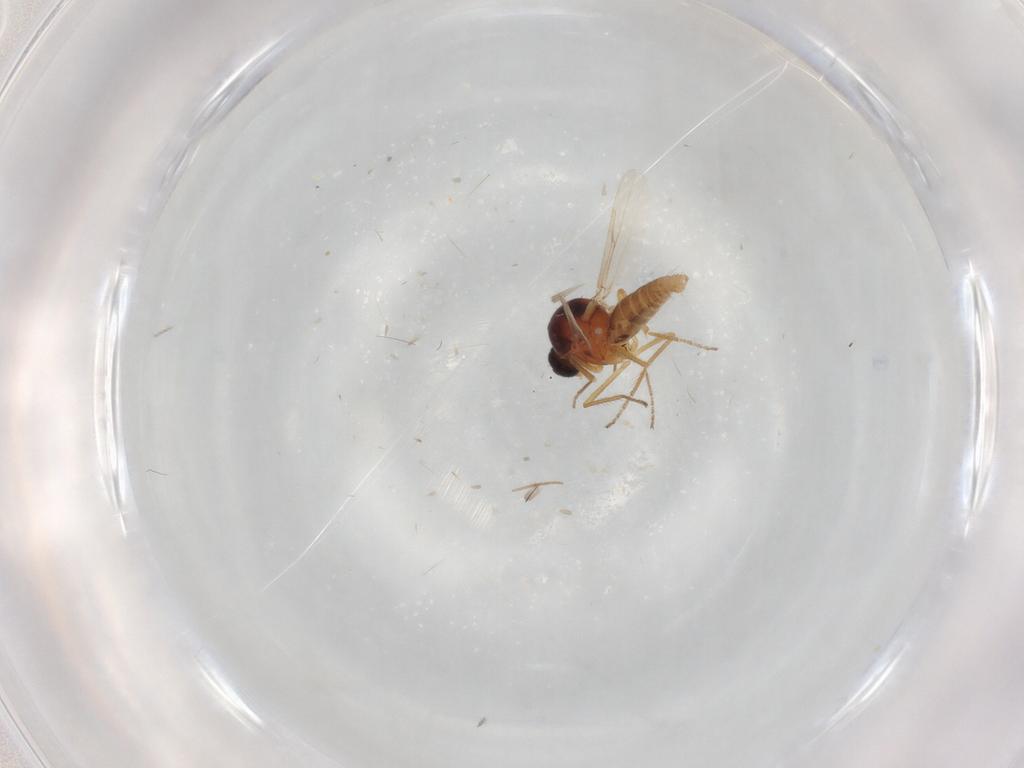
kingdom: Animalia
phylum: Arthropoda
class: Insecta
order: Diptera
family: Ceratopogonidae
